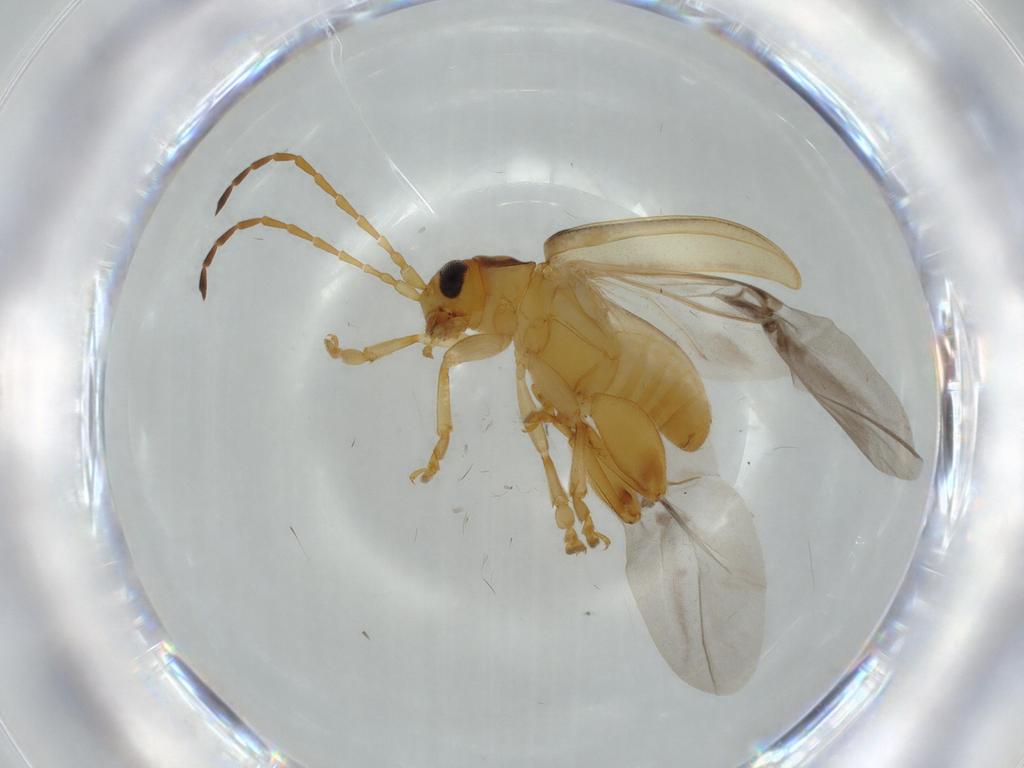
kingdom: Animalia
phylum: Arthropoda
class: Insecta
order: Coleoptera
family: Chrysomelidae
